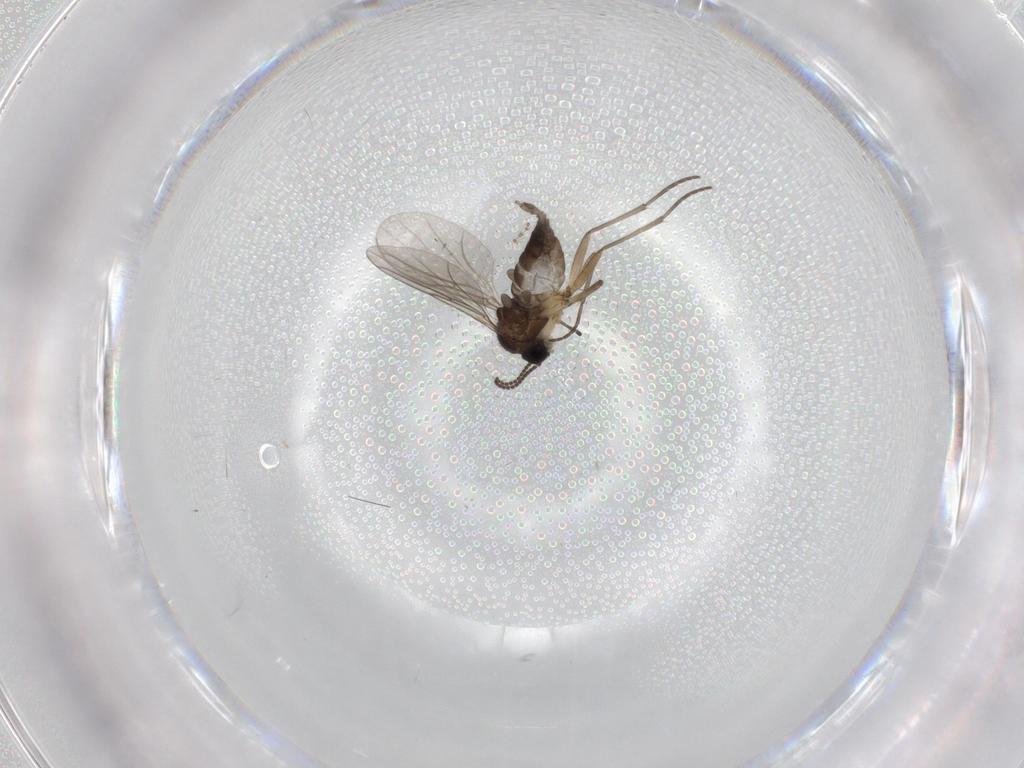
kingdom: Animalia
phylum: Arthropoda
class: Insecta
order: Diptera
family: Sciaridae
